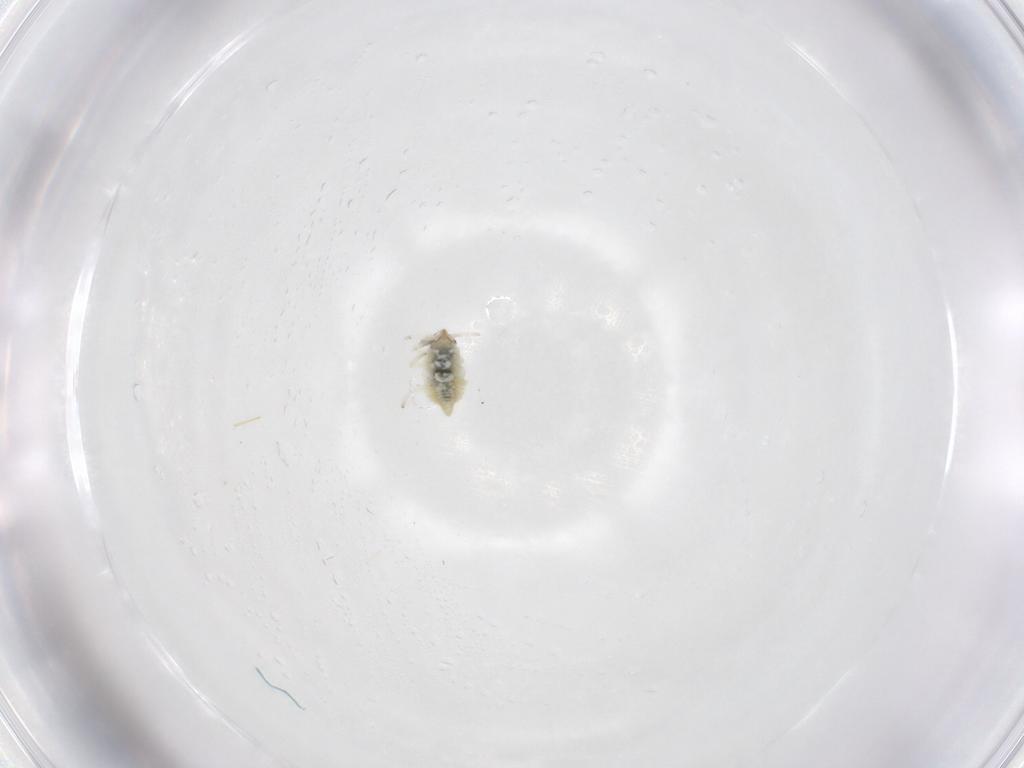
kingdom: Animalia
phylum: Arthropoda
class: Insecta
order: Neuroptera
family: Coniopterygidae
